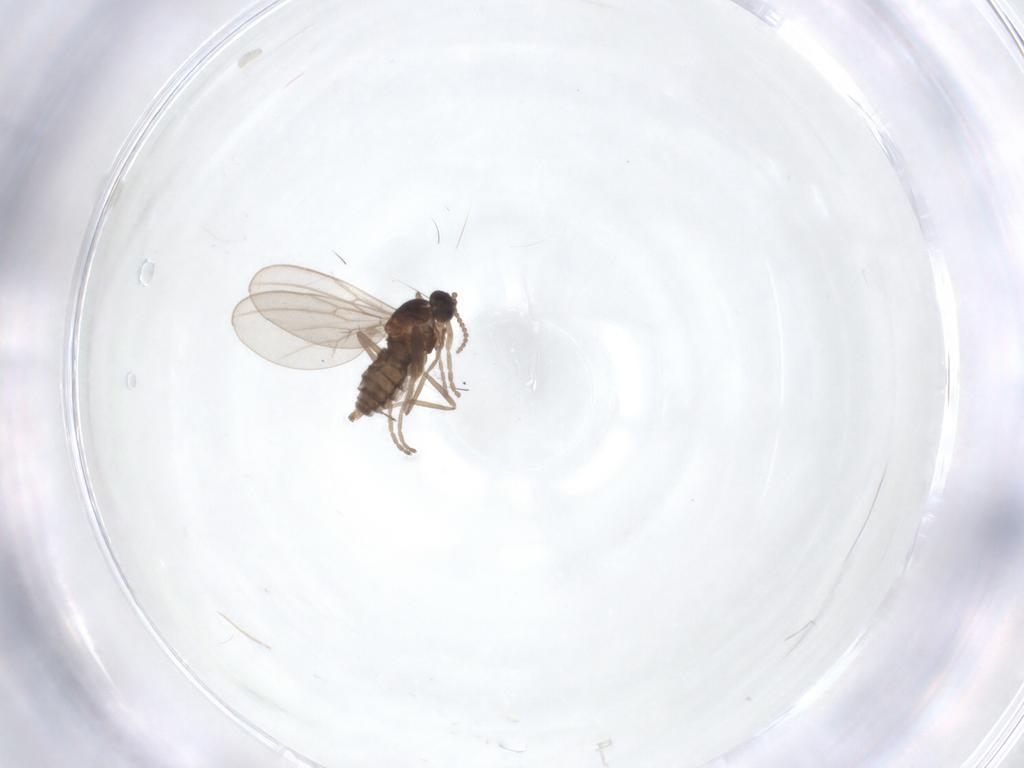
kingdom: Animalia
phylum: Arthropoda
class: Insecta
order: Diptera
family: Cecidomyiidae
